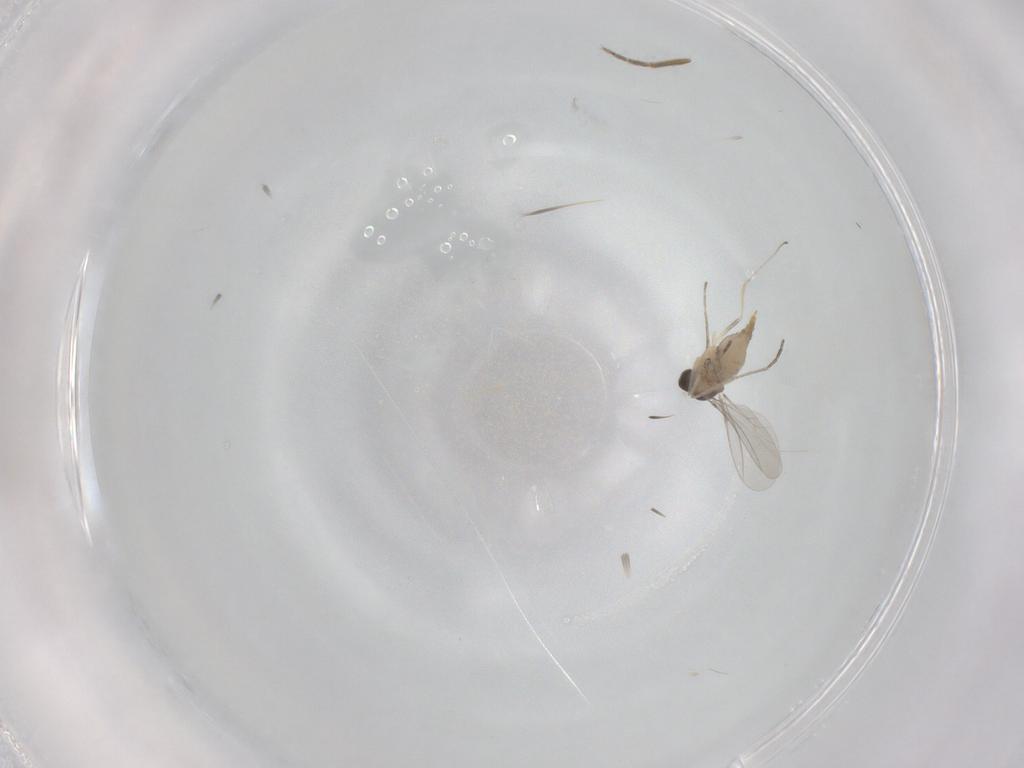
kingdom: Animalia
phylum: Arthropoda
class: Insecta
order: Diptera
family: Cecidomyiidae
